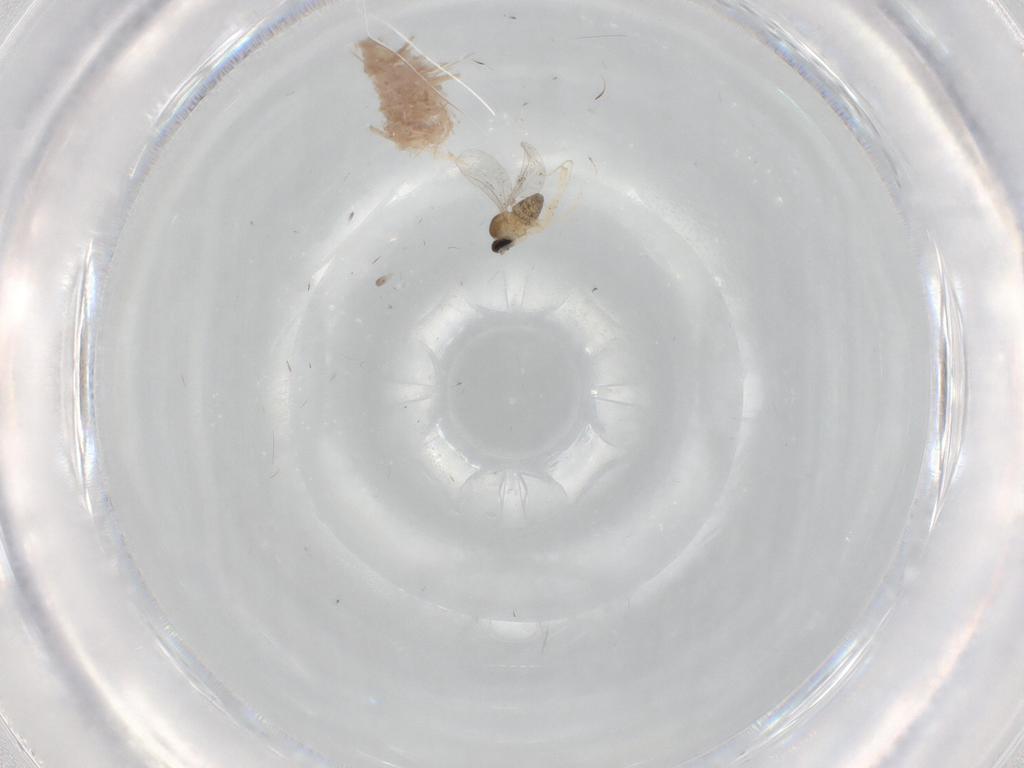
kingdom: Animalia
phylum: Arthropoda
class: Insecta
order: Diptera
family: Cecidomyiidae
